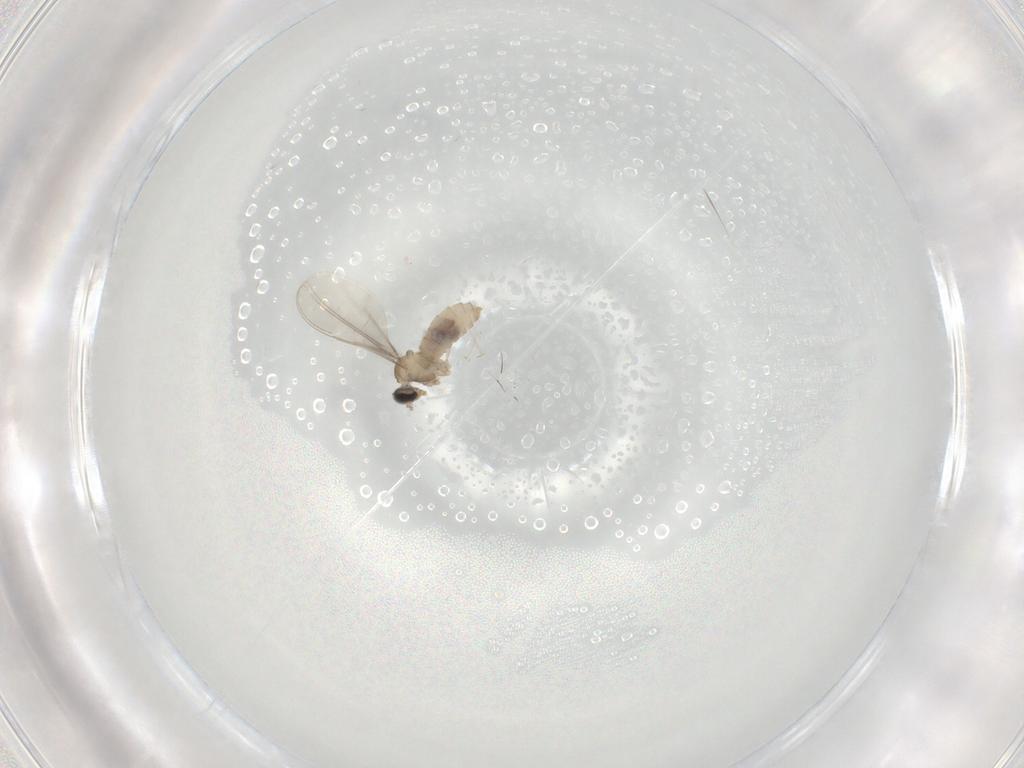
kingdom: Animalia
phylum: Arthropoda
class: Insecta
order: Diptera
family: Cecidomyiidae
